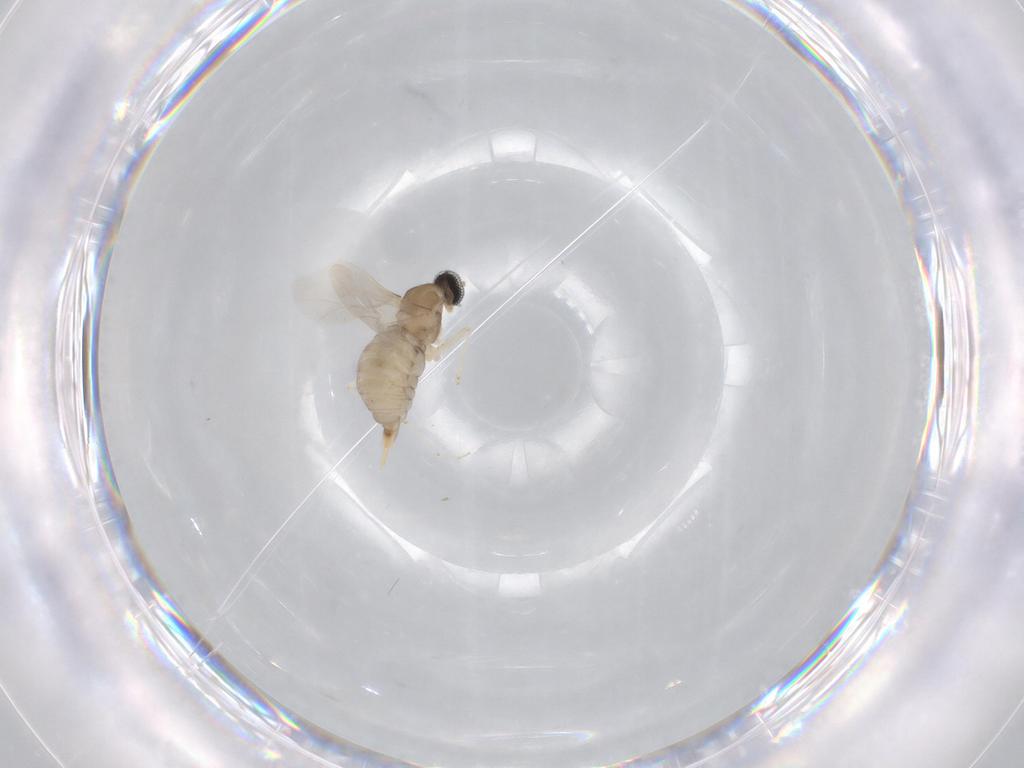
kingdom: Animalia
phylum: Arthropoda
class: Insecta
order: Diptera
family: Cecidomyiidae
